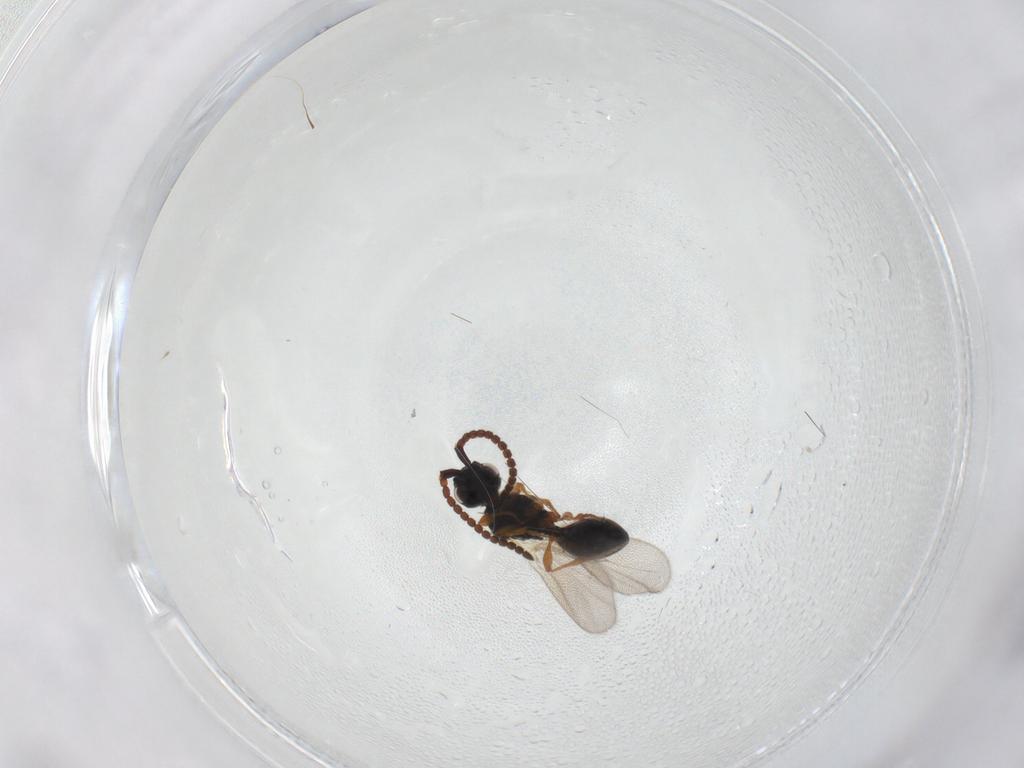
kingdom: Animalia
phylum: Arthropoda
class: Insecta
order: Hymenoptera
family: Diapriidae
